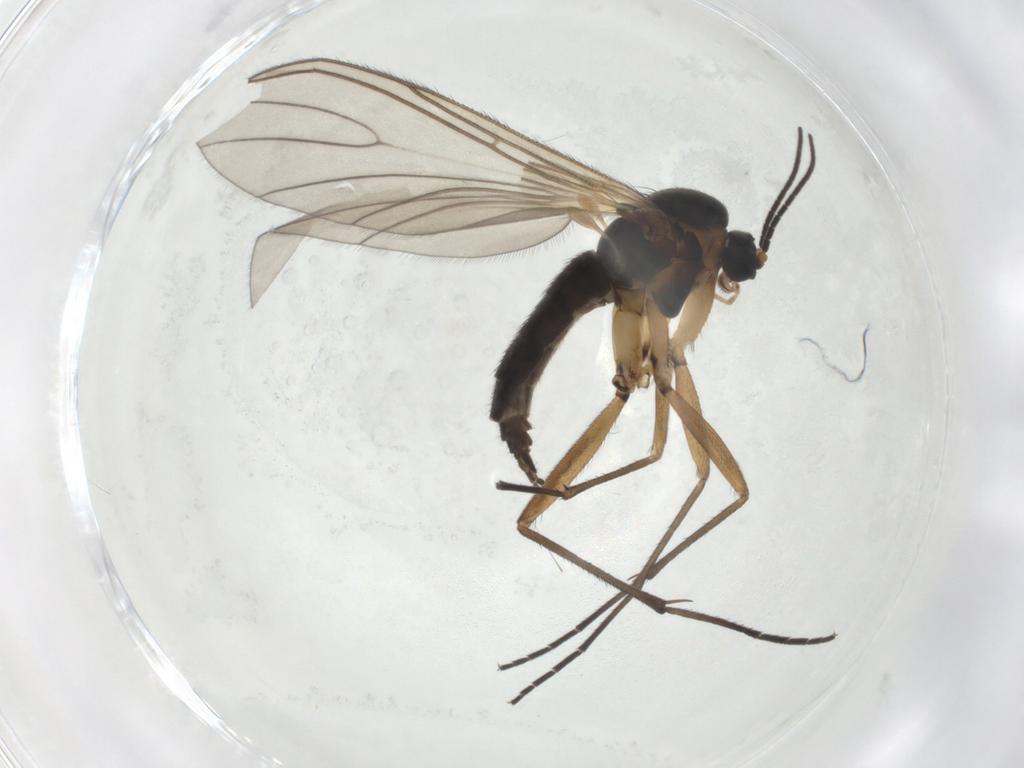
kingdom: Animalia
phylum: Arthropoda
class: Insecta
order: Diptera
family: Sciaridae
